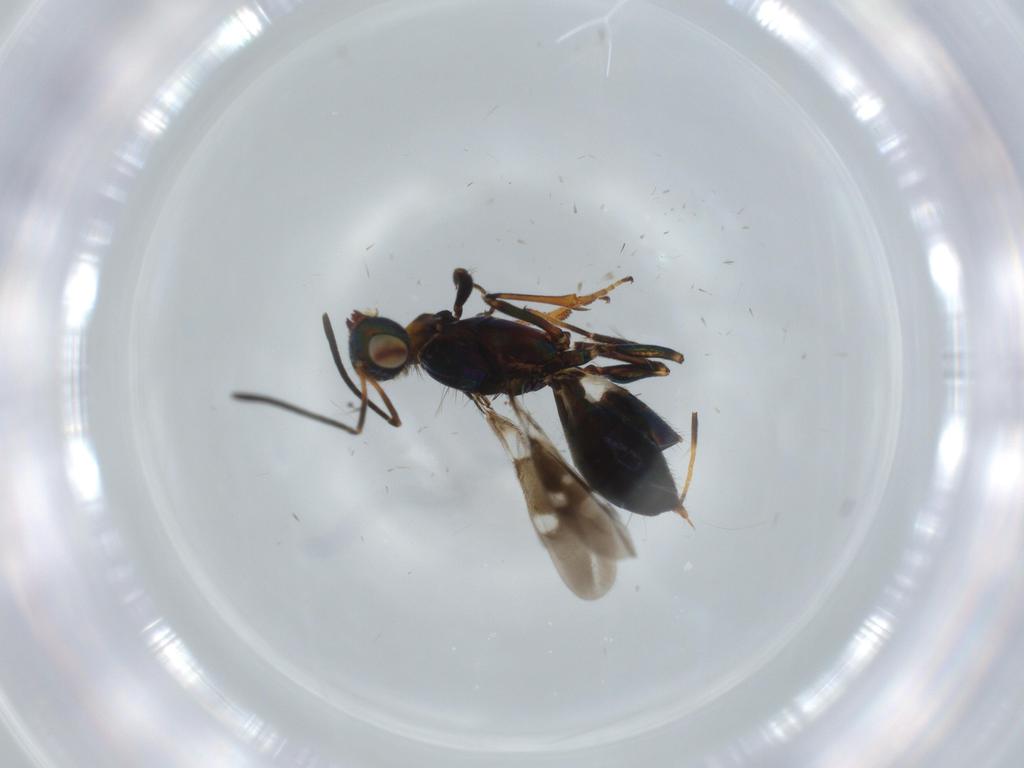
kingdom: Animalia
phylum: Arthropoda
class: Insecta
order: Hymenoptera
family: Eupelmidae
